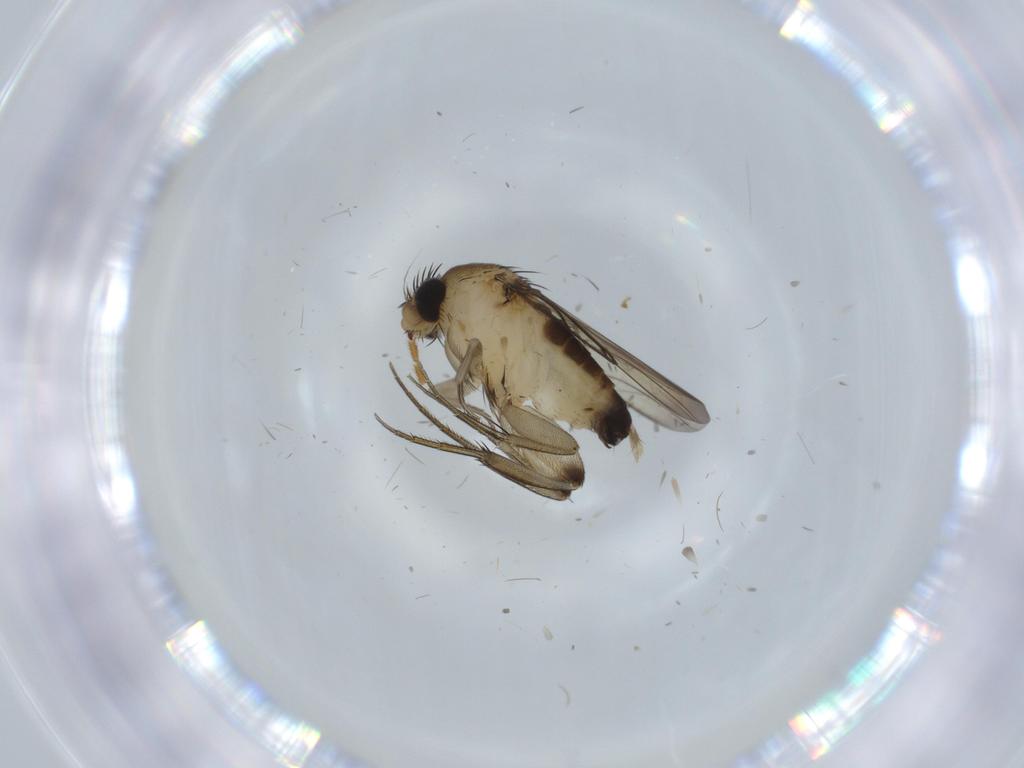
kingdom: Animalia
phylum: Arthropoda
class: Insecta
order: Diptera
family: Phoridae
